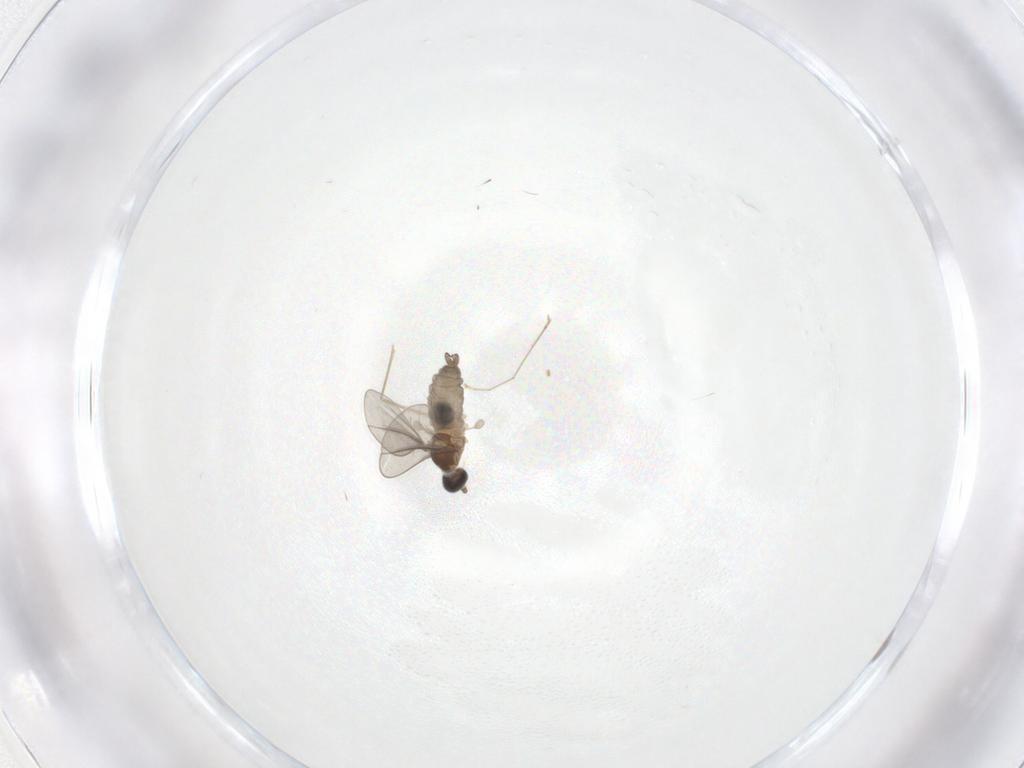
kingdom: Animalia
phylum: Arthropoda
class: Insecta
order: Diptera
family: Cecidomyiidae
